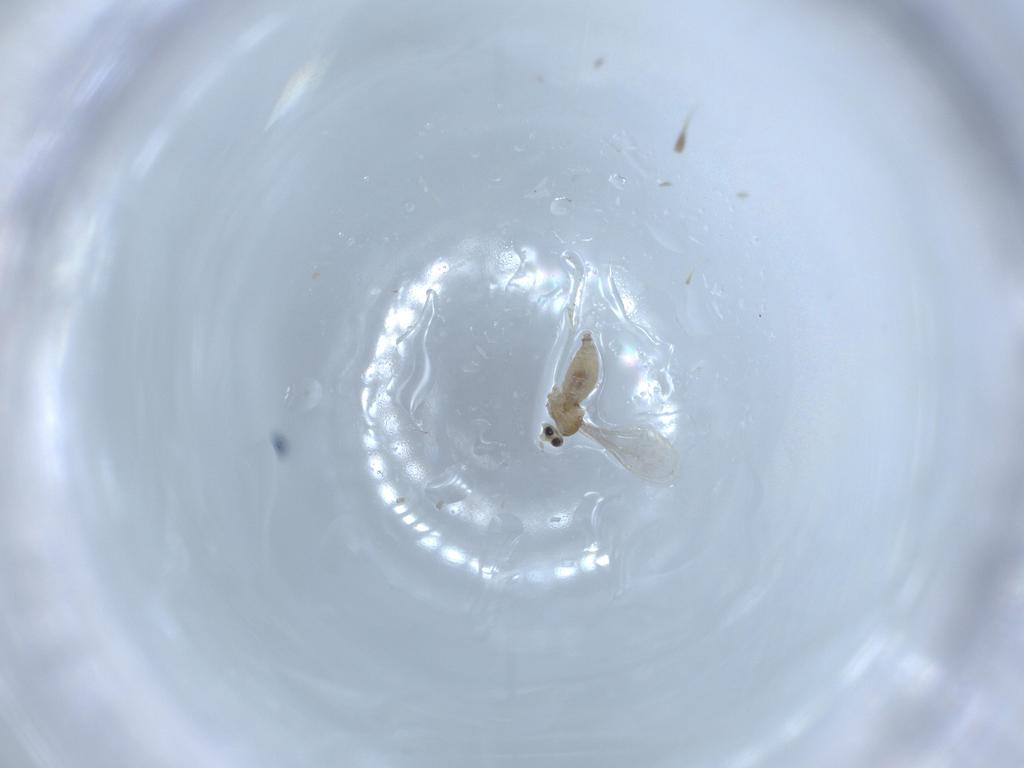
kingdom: Animalia
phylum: Arthropoda
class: Insecta
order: Diptera
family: Cecidomyiidae
